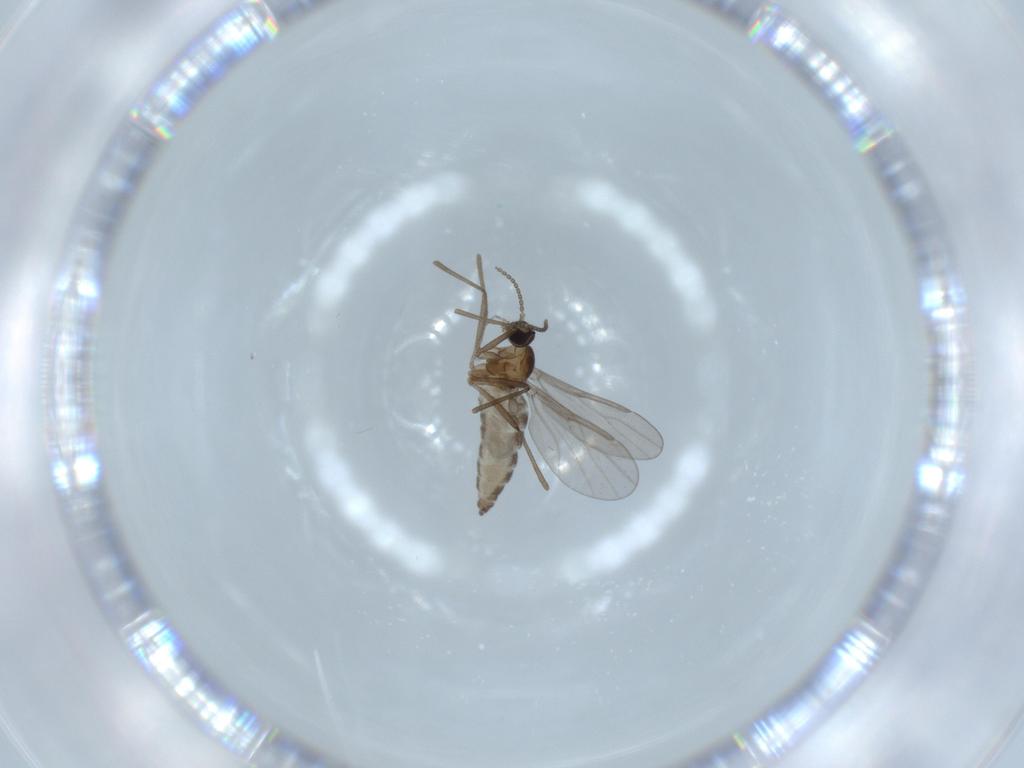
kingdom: Animalia
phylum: Arthropoda
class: Insecta
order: Diptera
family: Cecidomyiidae
